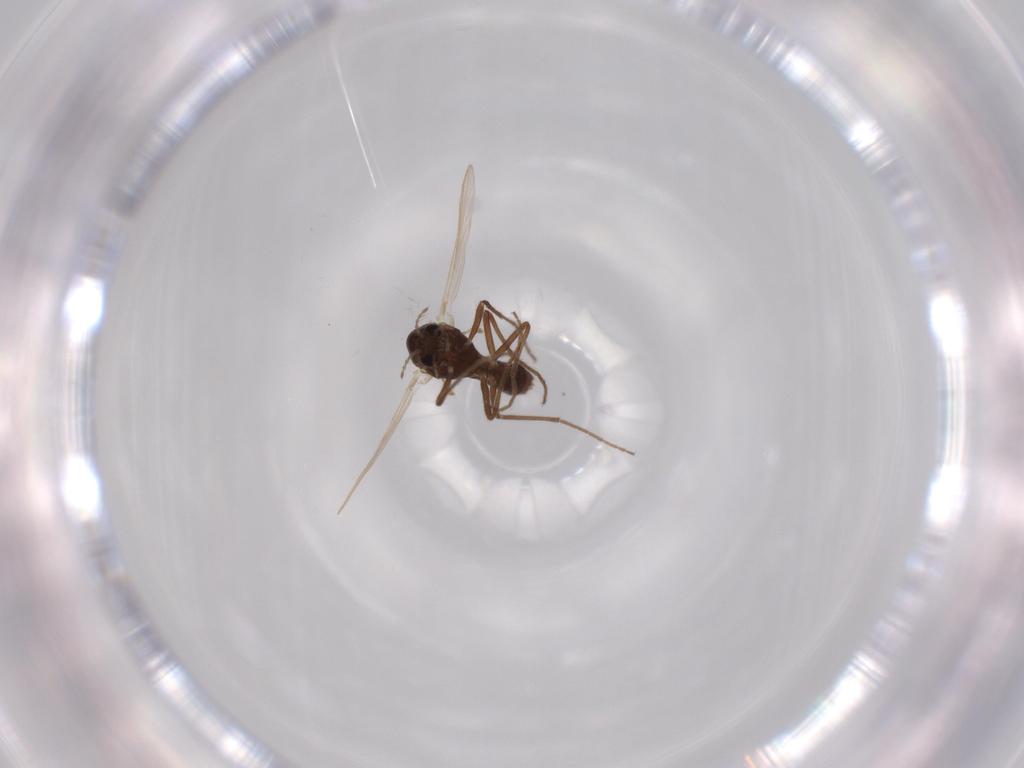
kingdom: Animalia
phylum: Arthropoda
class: Insecta
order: Diptera
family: Chironomidae
